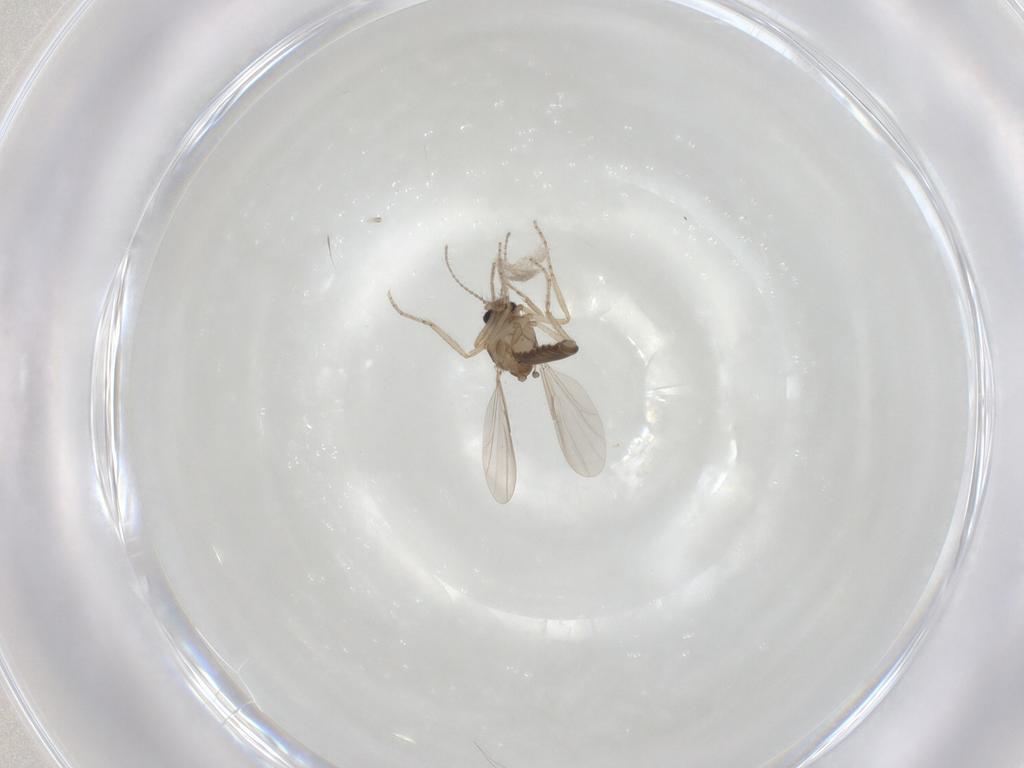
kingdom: Animalia
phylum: Arthropoda
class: Insecta
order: Diptera
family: Ceratopogonidae
